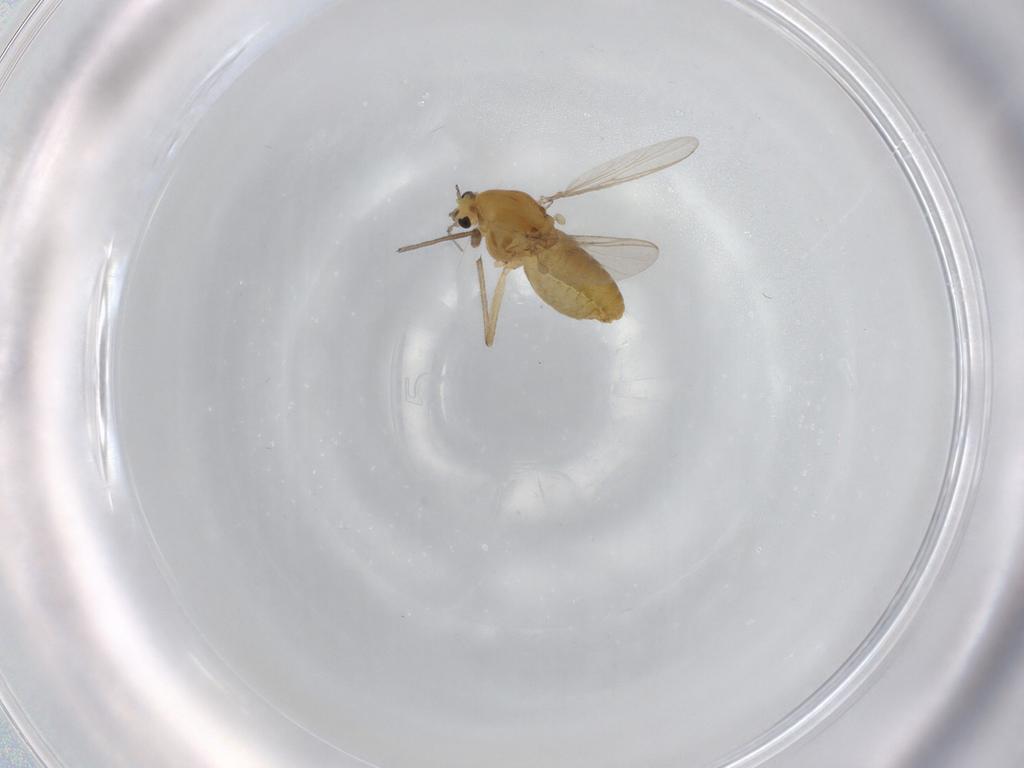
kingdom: Animalia
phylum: Arthropoda
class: Insecta
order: Diptera
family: Chironomidae
